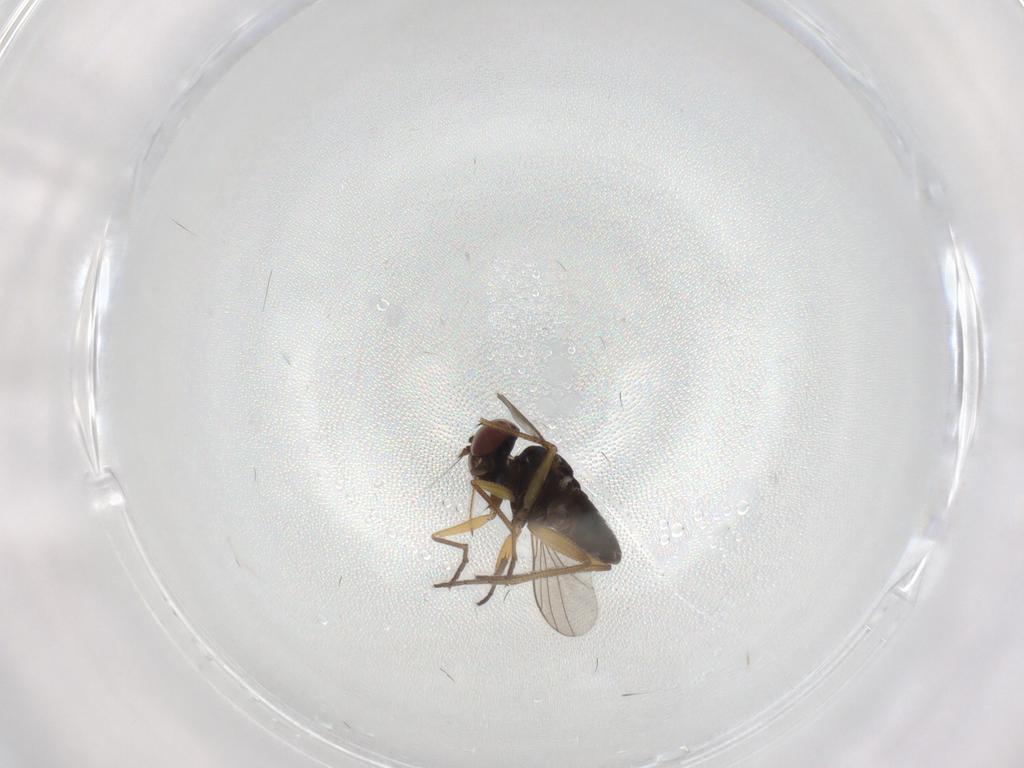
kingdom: Animalia
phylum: Arthropoda
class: Insecta
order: Diptera
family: Dolichopodidae
